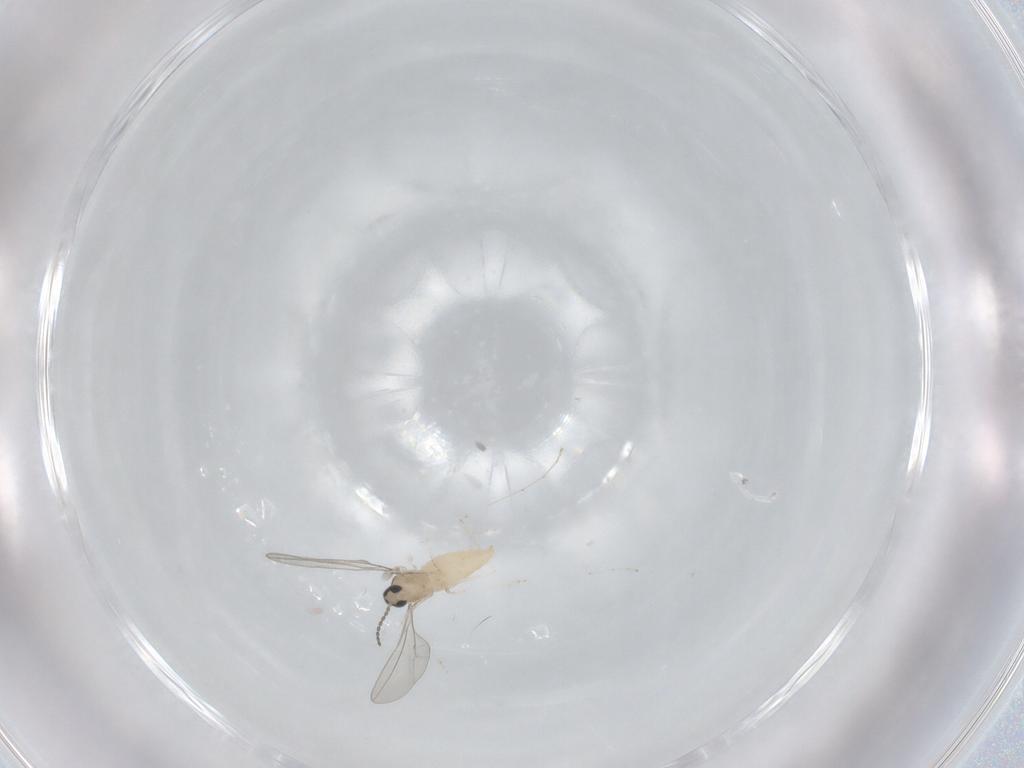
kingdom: Animalia
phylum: Arthropoda
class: Insecta
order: Diptera
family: Cecidomyiidae
